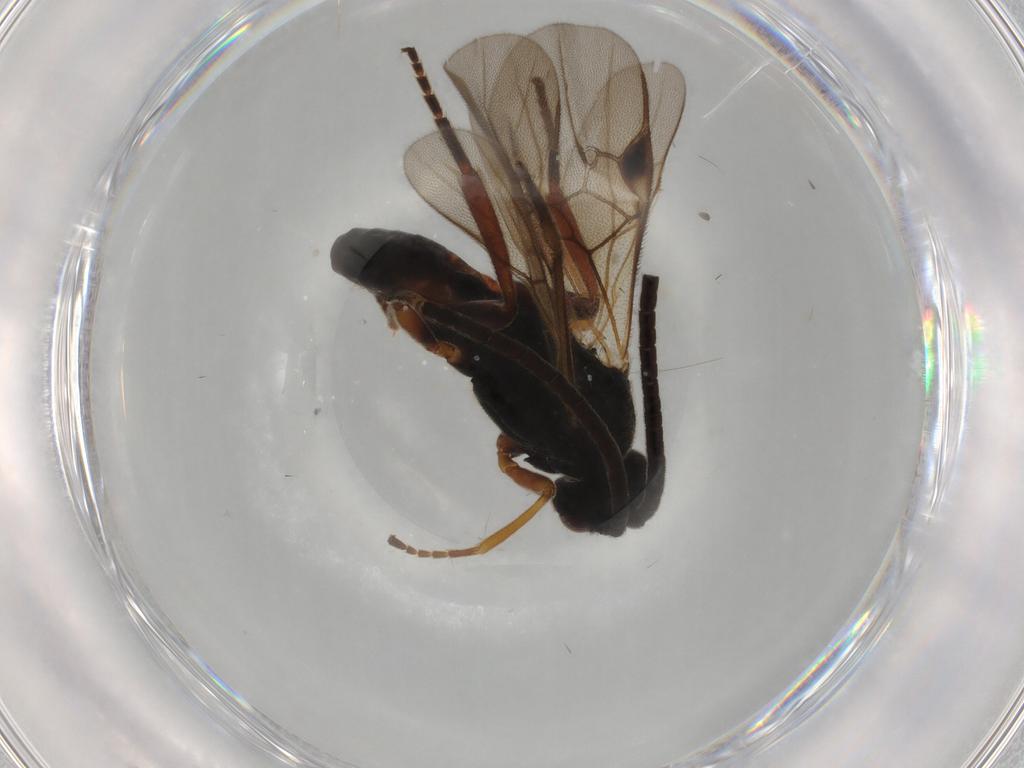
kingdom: Animalia
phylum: Arthropoda
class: Insecta
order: Hymenoptera
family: Braconidae
